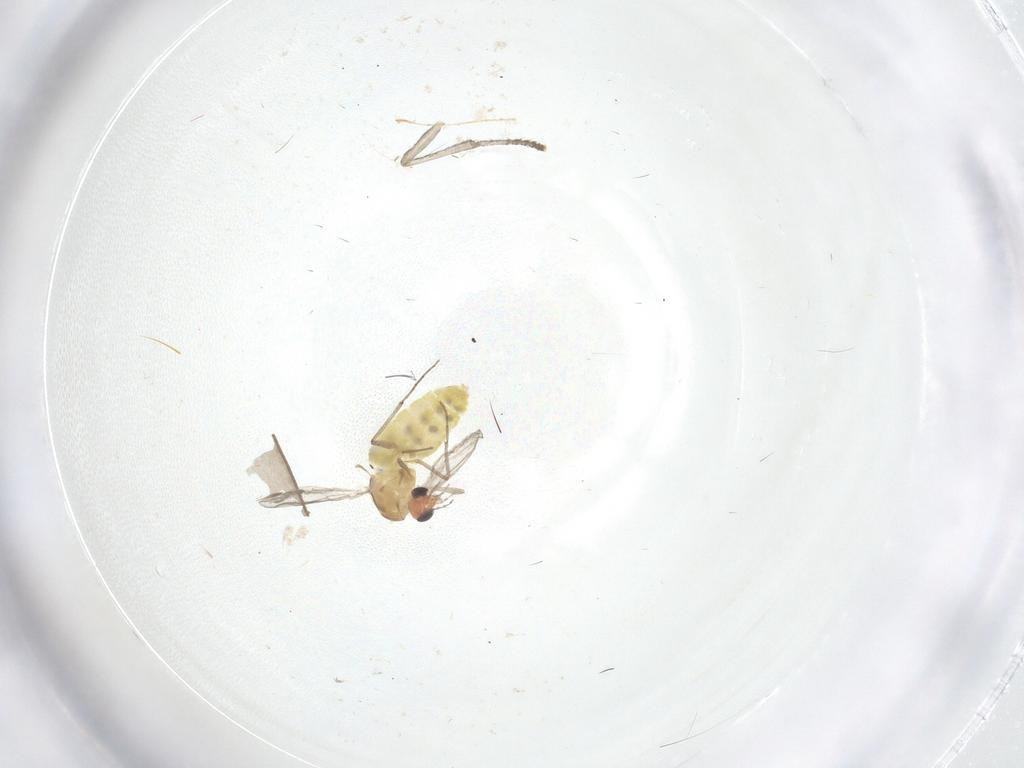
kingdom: Animalia
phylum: Arthropoda
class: Insecta
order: Diptera
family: Chironomidae
